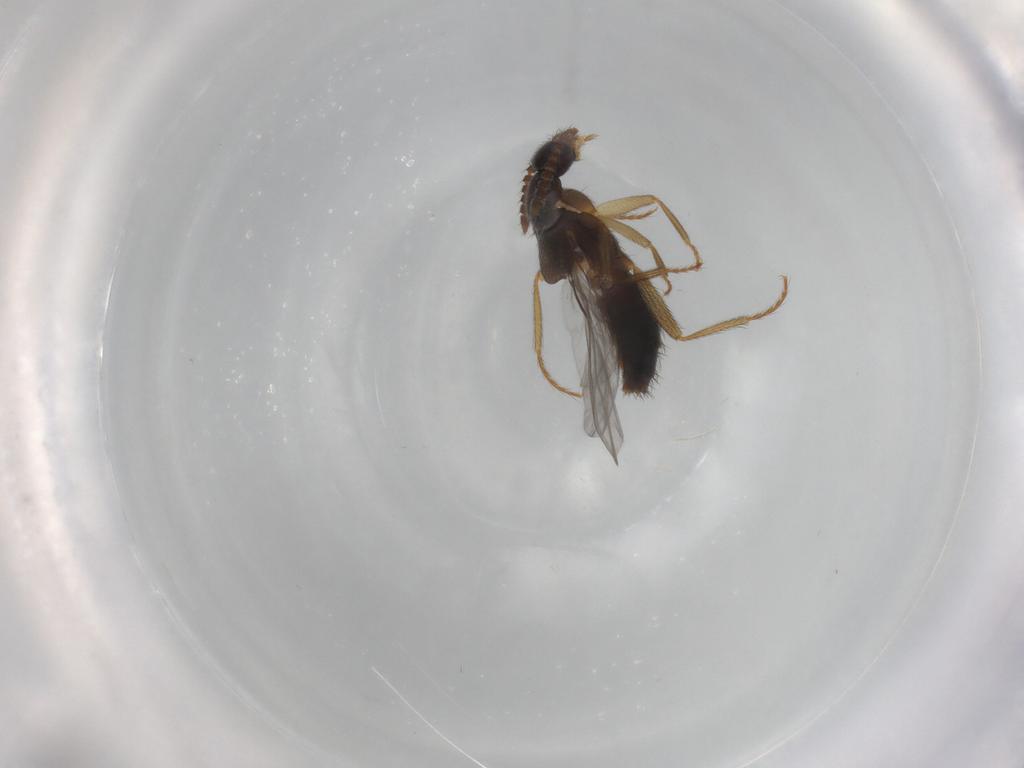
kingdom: Animalia
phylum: Arthropoda
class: Insecta
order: Coleoptera
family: Staphylinidae
